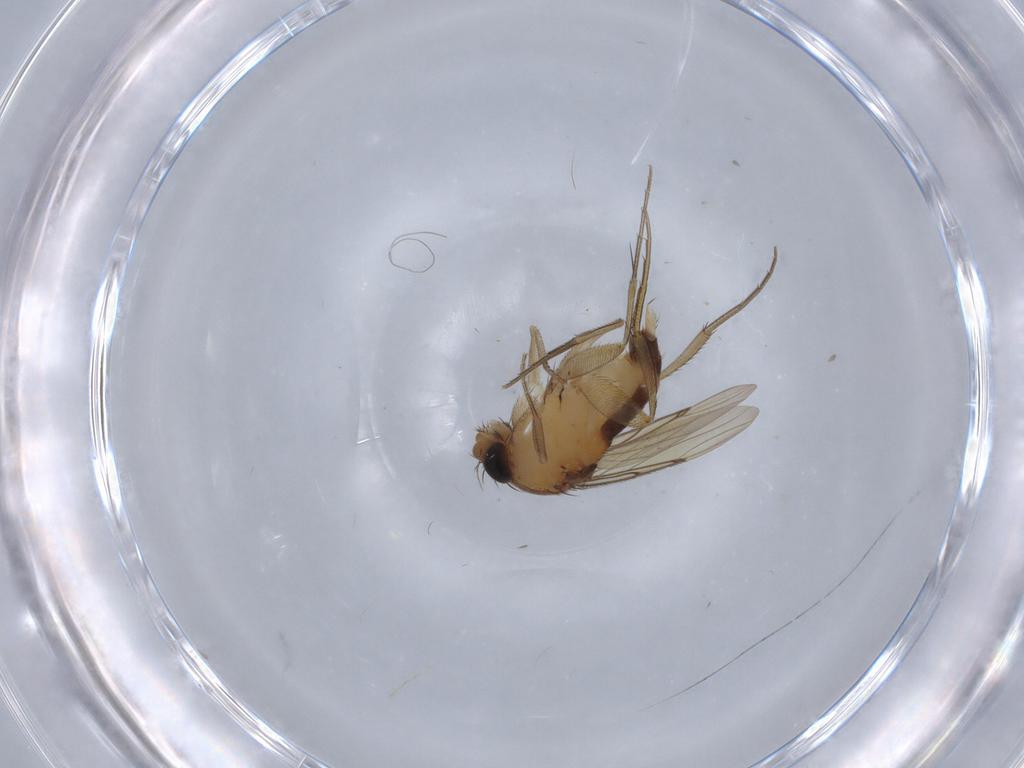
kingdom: Animalia
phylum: Arthropoda
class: Insecta
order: Diptera
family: Ceratopogonidae
